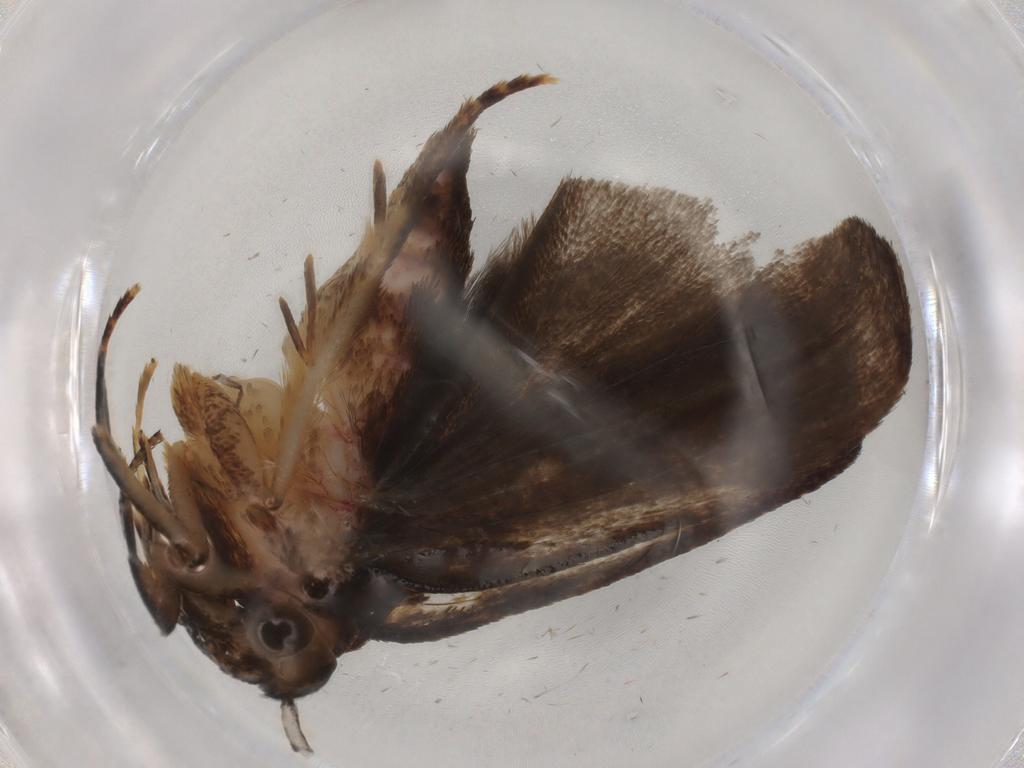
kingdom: Animalia
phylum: Arthropoda
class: Insecta
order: Lepidoptera
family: Autostichidae
